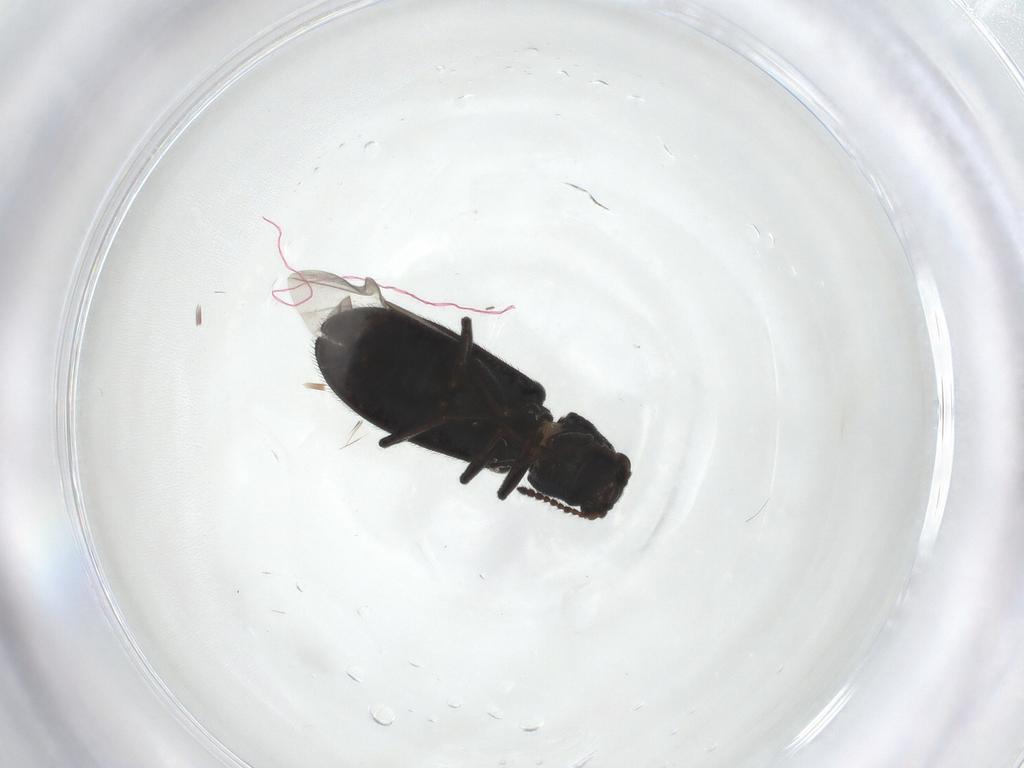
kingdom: Animalia
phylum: Arthropoda
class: Insecta
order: Coleoptera
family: Melyridae
